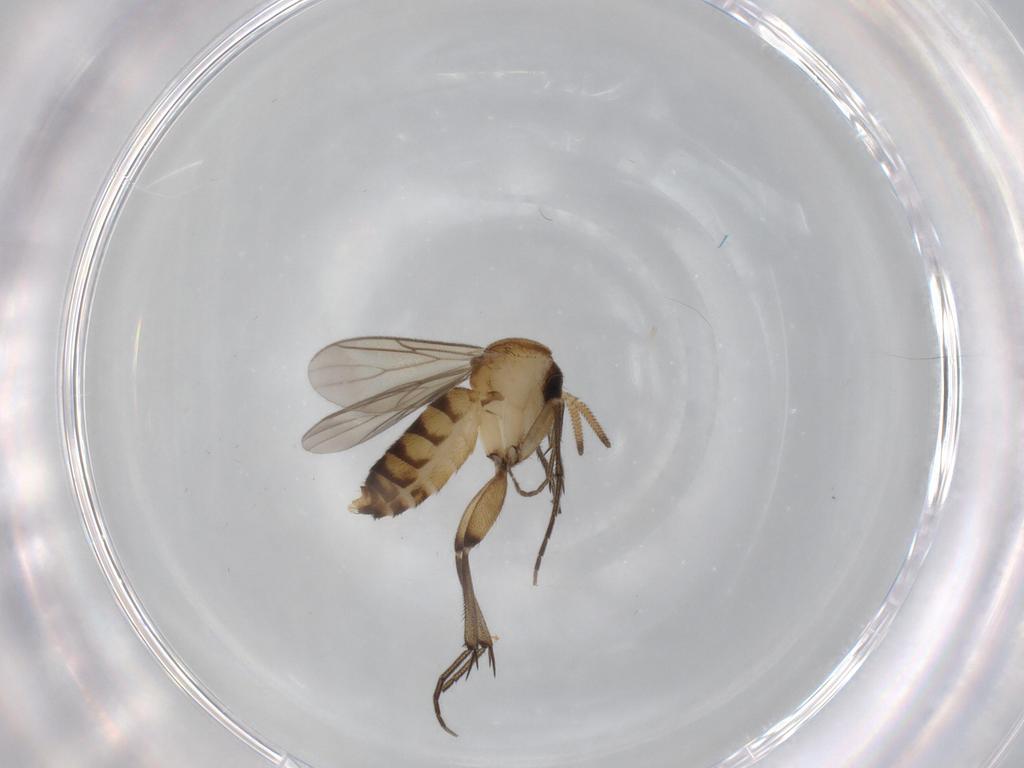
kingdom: Animalia
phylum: Arthropoda
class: Insecta
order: Diptera
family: Mycetophilidae
